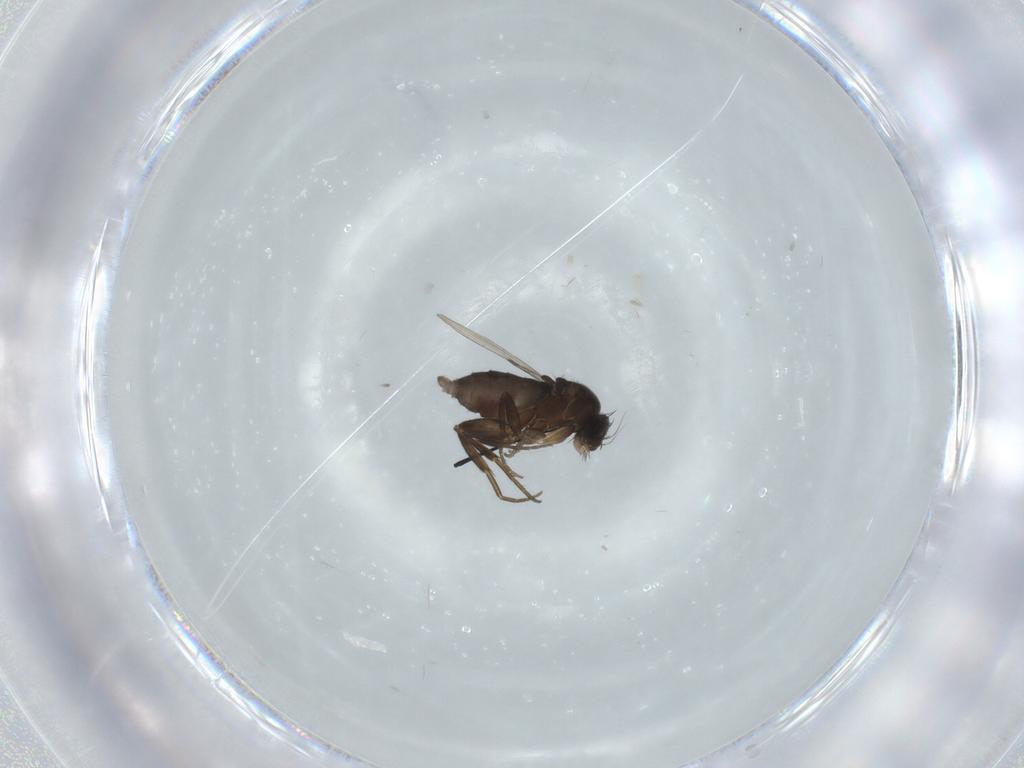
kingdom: Animalia
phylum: Arthropoda
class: Insecta
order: Diptera
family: Phoridae
